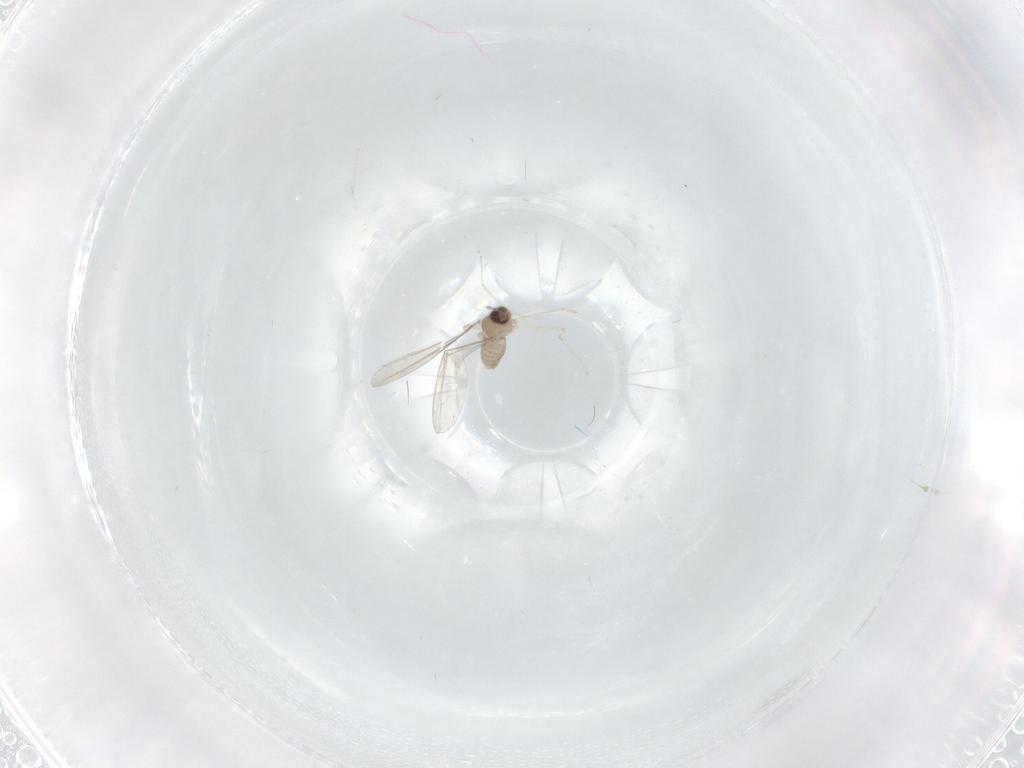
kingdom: Animalia
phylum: Arthropoda
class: Insecta
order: Diptera
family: Cecidomyiidae
